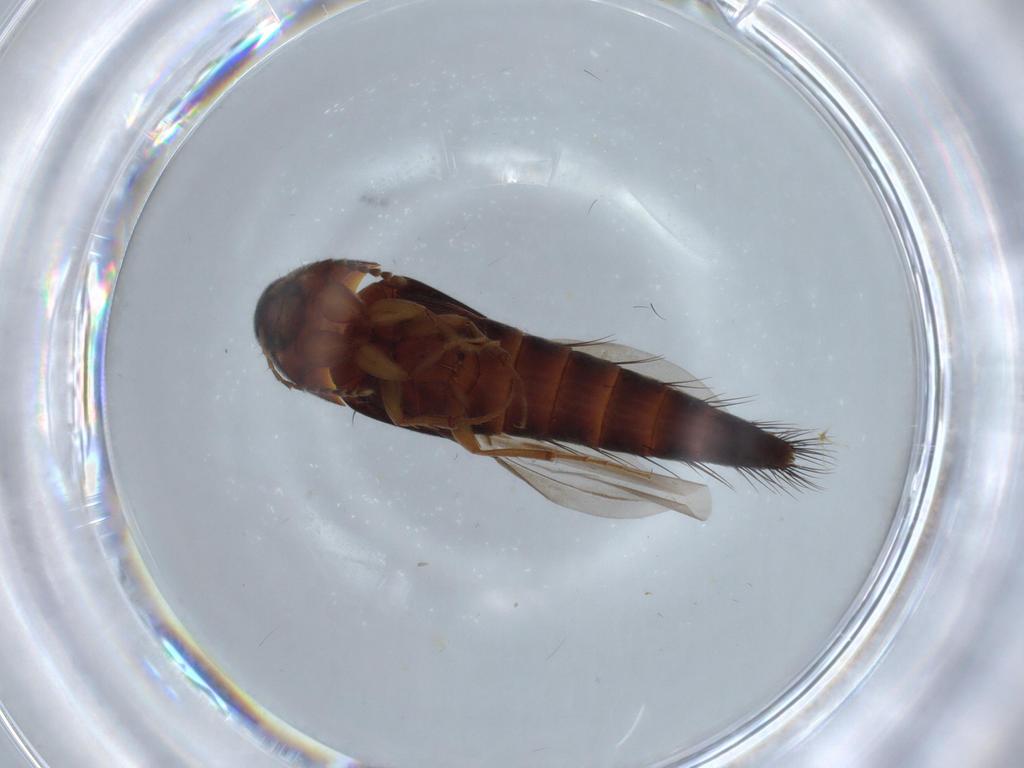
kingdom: Animalia
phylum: Arthropoda
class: Insecta
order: Coleoptera
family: Staphylinidae
